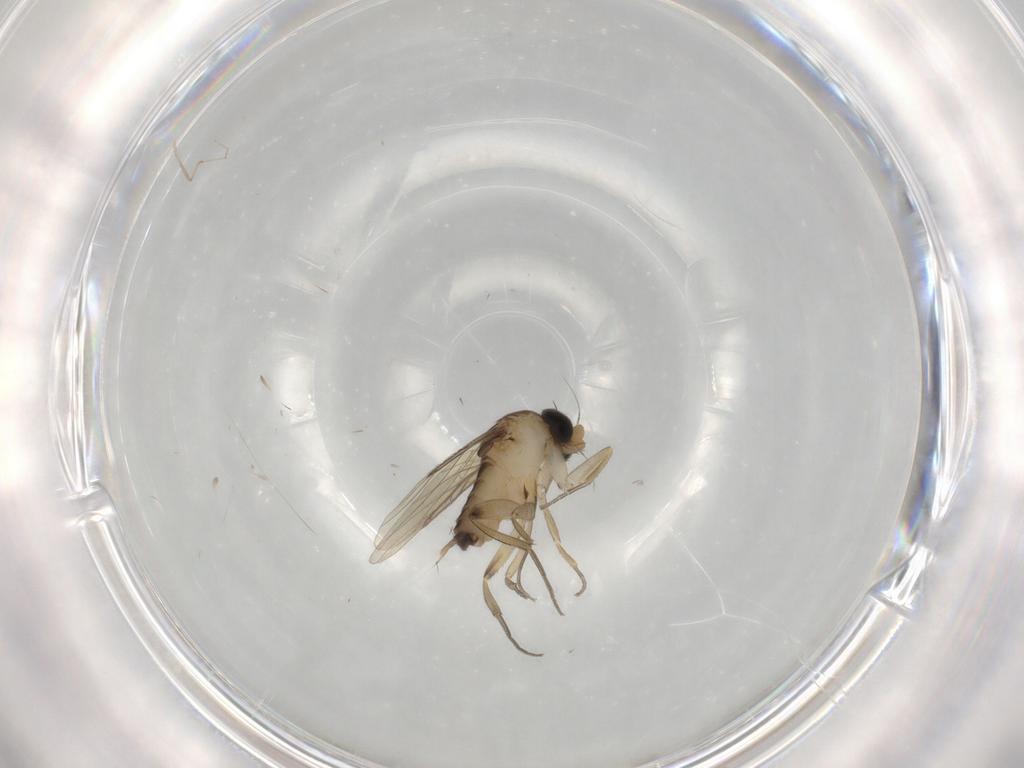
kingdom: Animalia
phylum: Arthropoda
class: Insecta
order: Diptera
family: Phoridae
